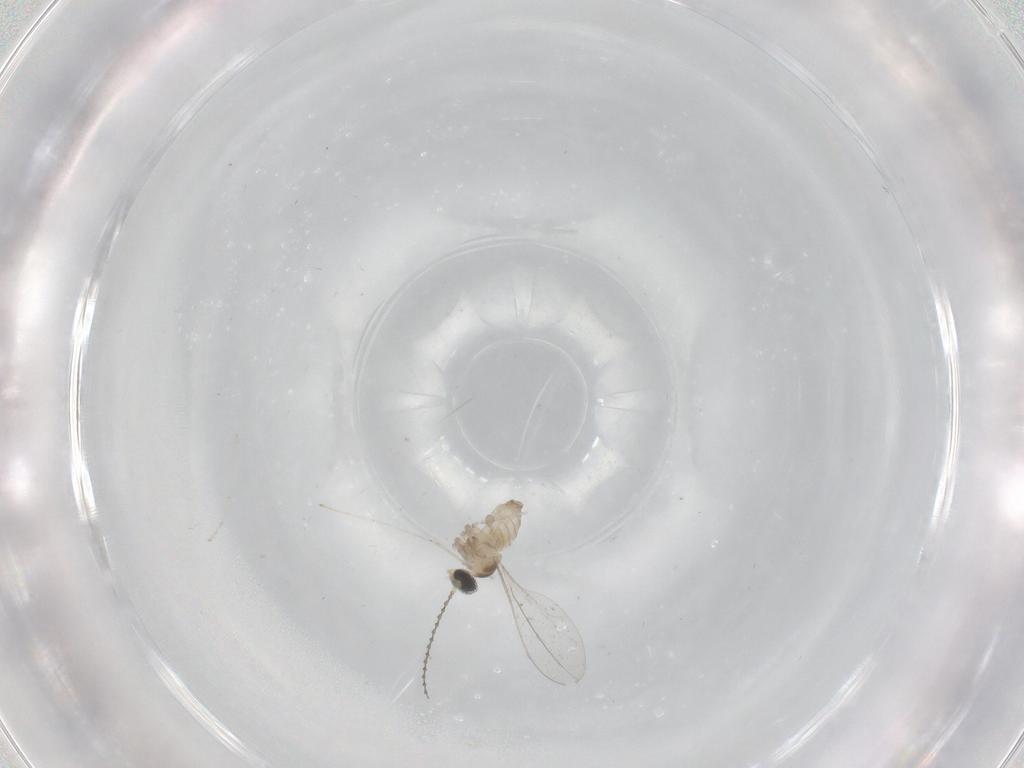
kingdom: Animalia
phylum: Arthropoda
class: Insecta
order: Diptera
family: Cecidomyiidae
